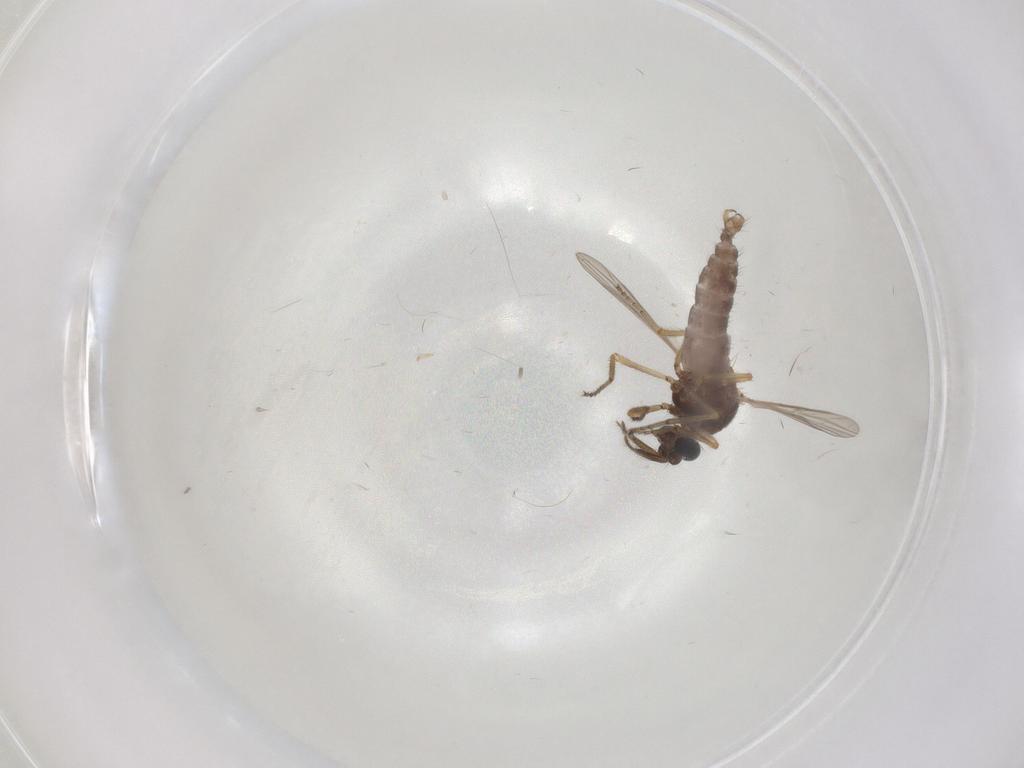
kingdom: Animalia
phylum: Arthropoda
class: Insecta
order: Diptera
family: Ceratopogonidae
